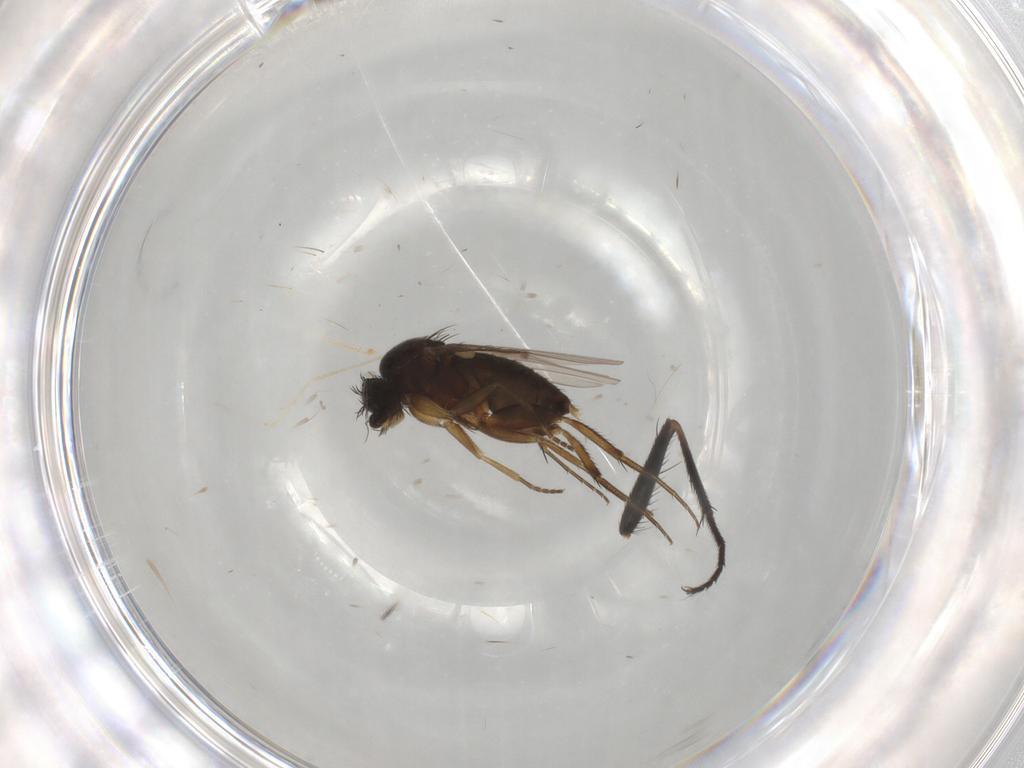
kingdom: Animalia
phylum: Arthropoda
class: Insecta
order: Diptera
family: Phoridae
